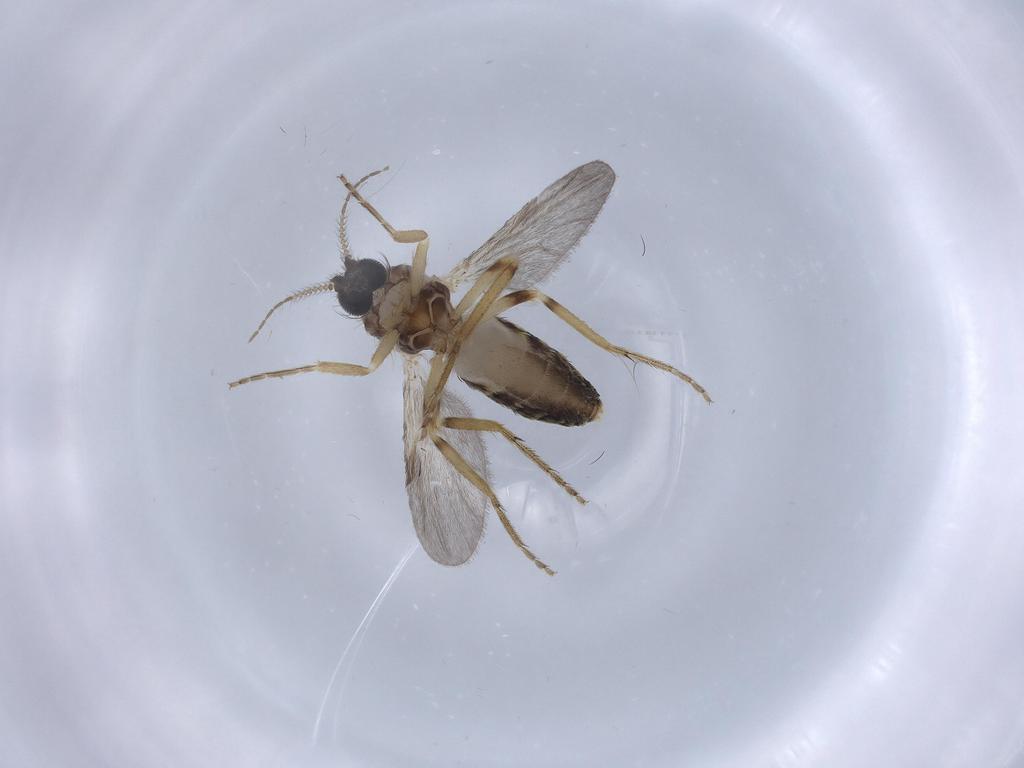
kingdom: Animalia
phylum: Arthropoda
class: Insecta
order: Diptera
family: Ceratopogonidae
